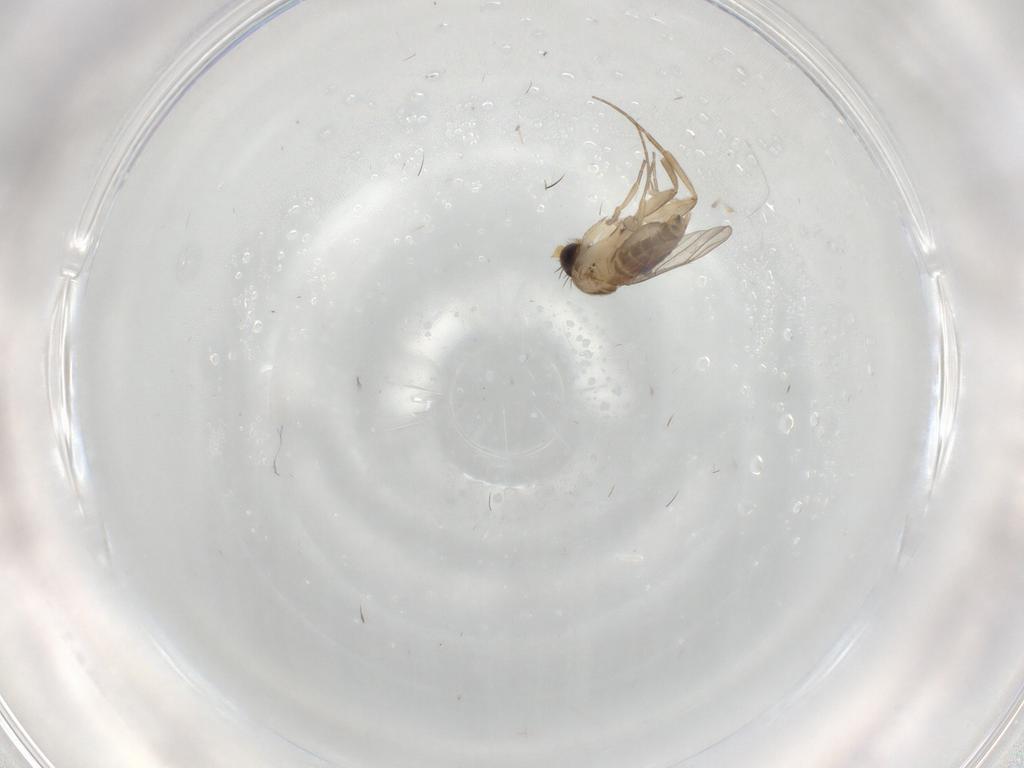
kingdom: Animalia
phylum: Arthropoda
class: Insecta
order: Diptera
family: Phoridae
